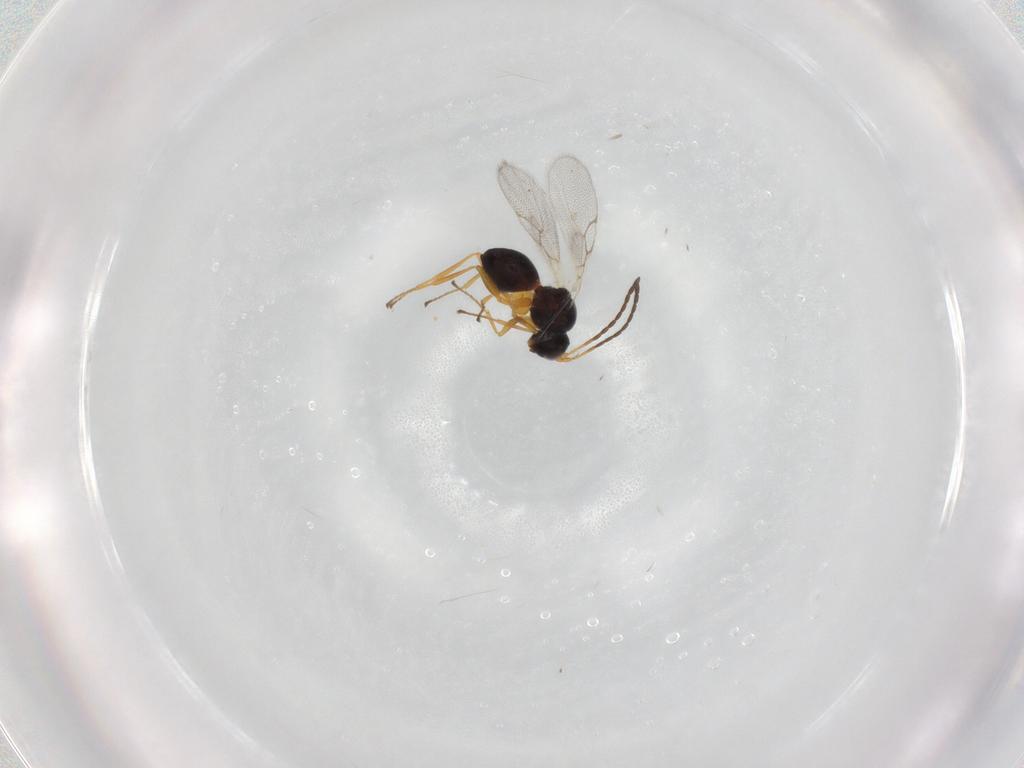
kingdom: Animalia
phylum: Arthropoda
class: Insecta
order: Hymenoptera
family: Figitidae
